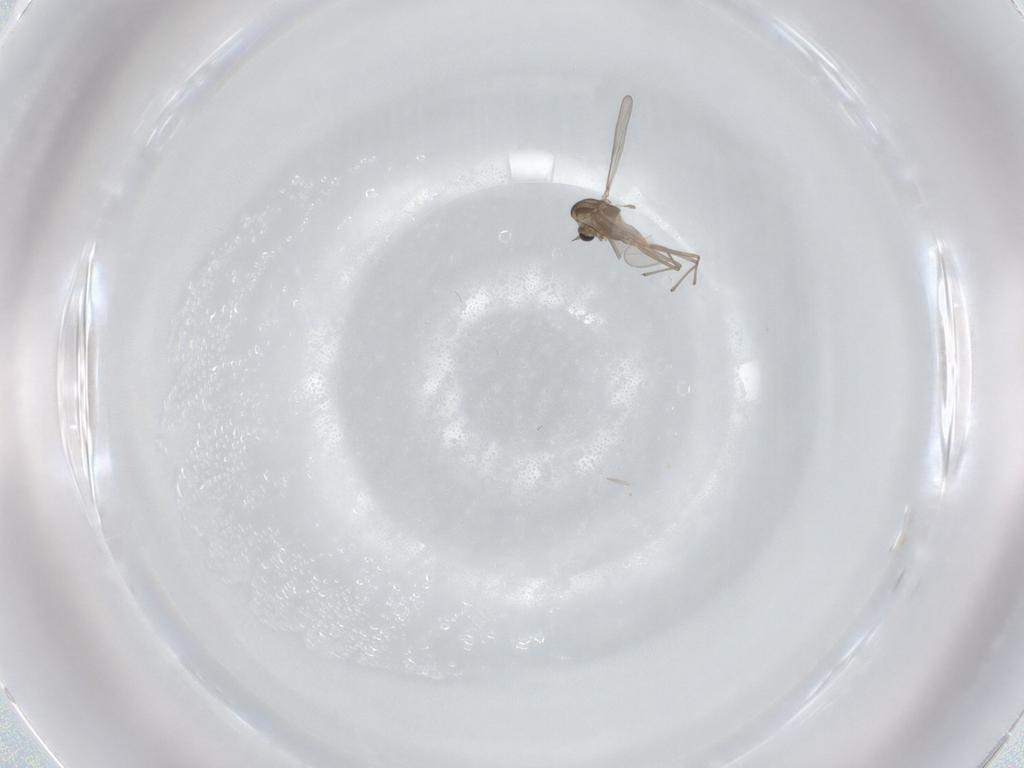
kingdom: Animalia
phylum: Arthropoda
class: Insecta
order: Diptera
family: Chironomidae
